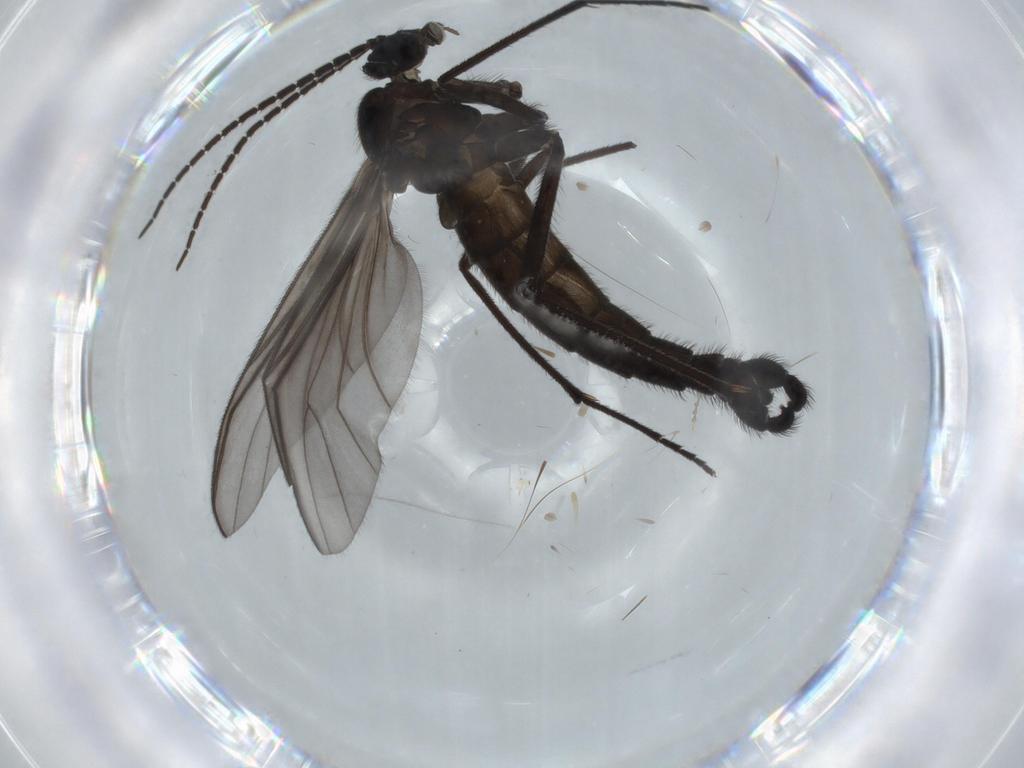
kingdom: Animalia
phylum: Arthropoda
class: Insecta
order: Diptera
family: Cecidomyiidae
